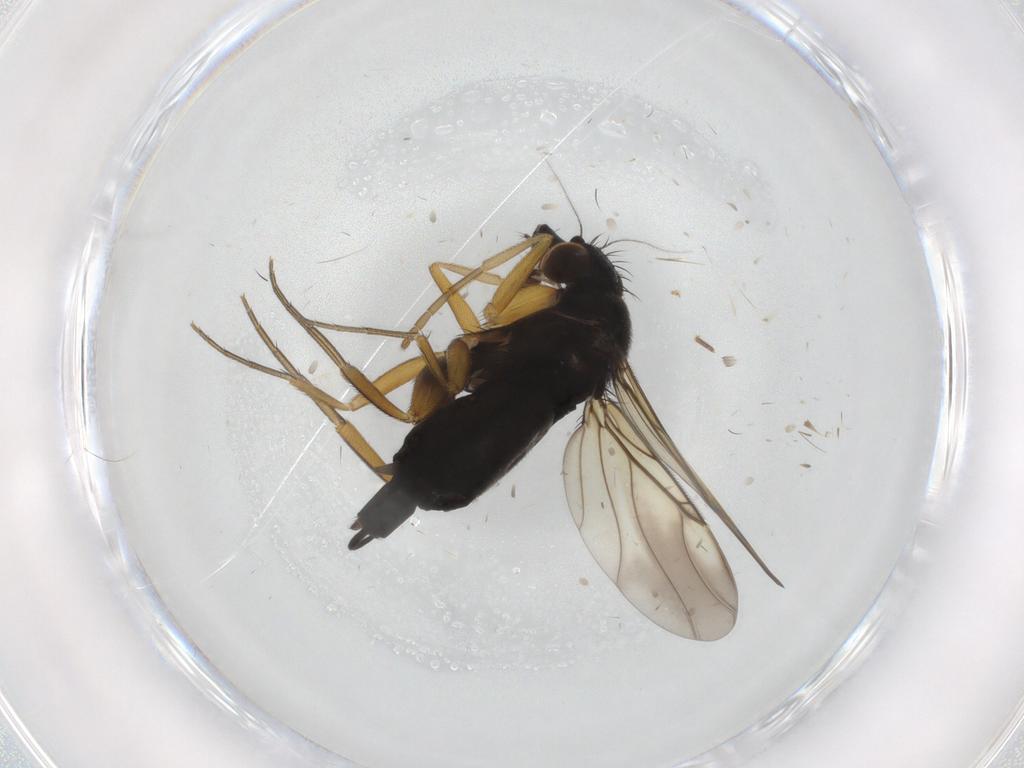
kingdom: Animalia
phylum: Arthropoda
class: Insecta
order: Diptera
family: Phoridae
